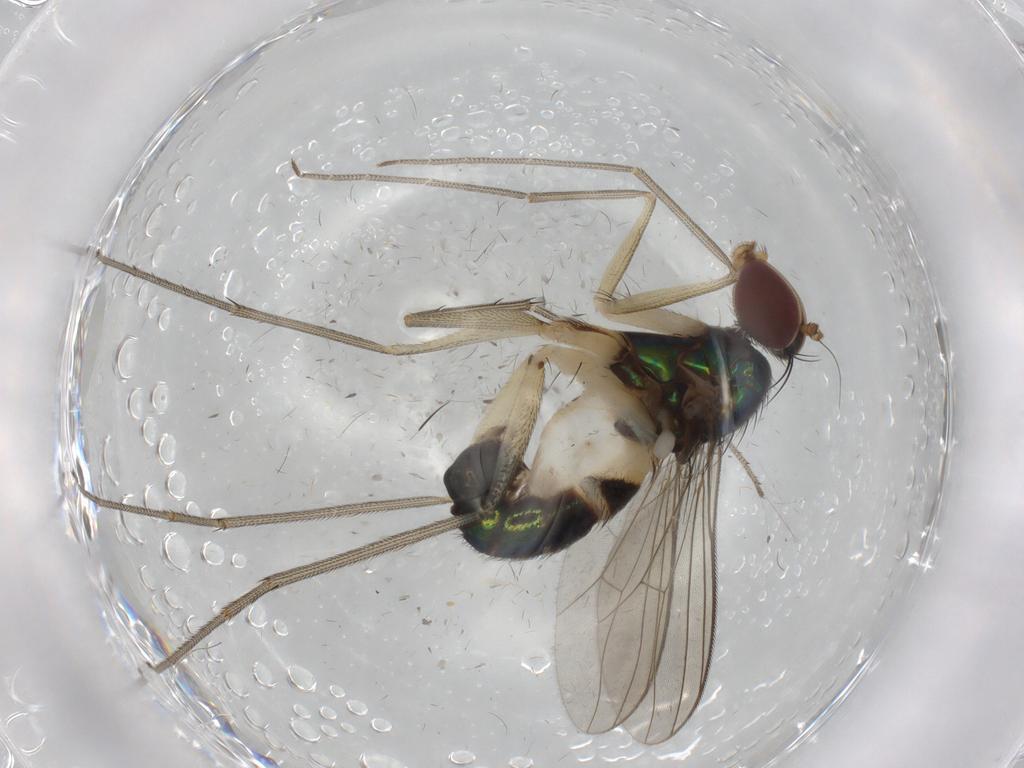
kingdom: Animalia
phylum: Arthropoda
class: Insecta
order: Diptera
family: Dolichopodidae
